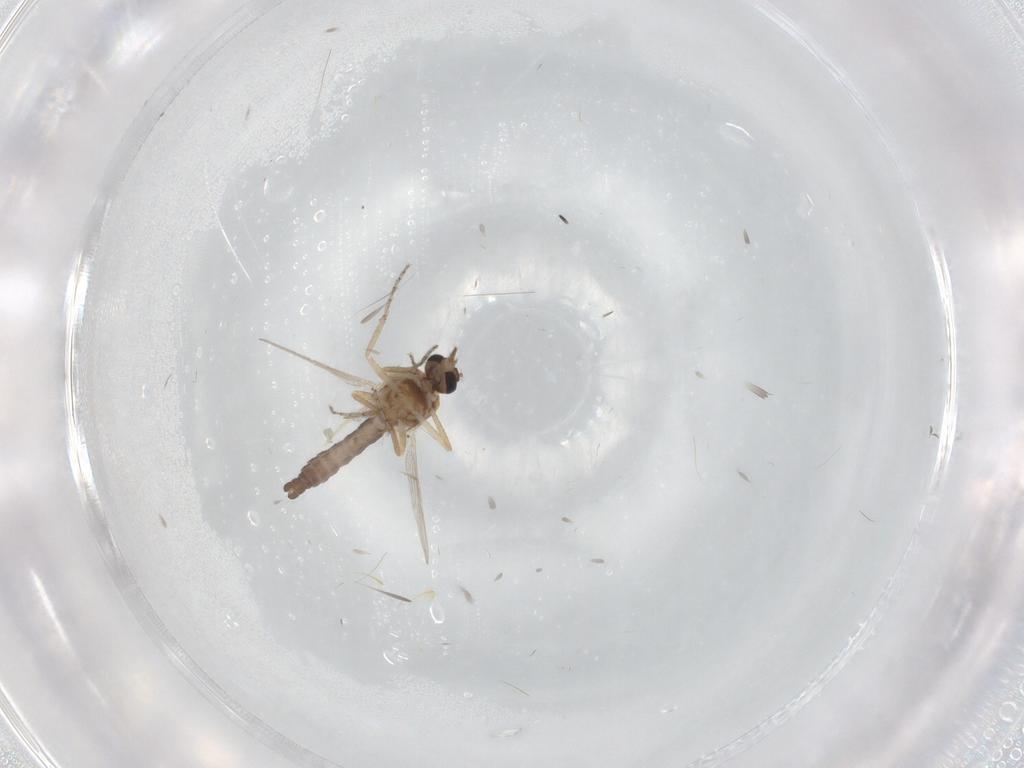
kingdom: Animalia
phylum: Arthropoda
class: Insecta
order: Diptera
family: Ceratopogonidae
